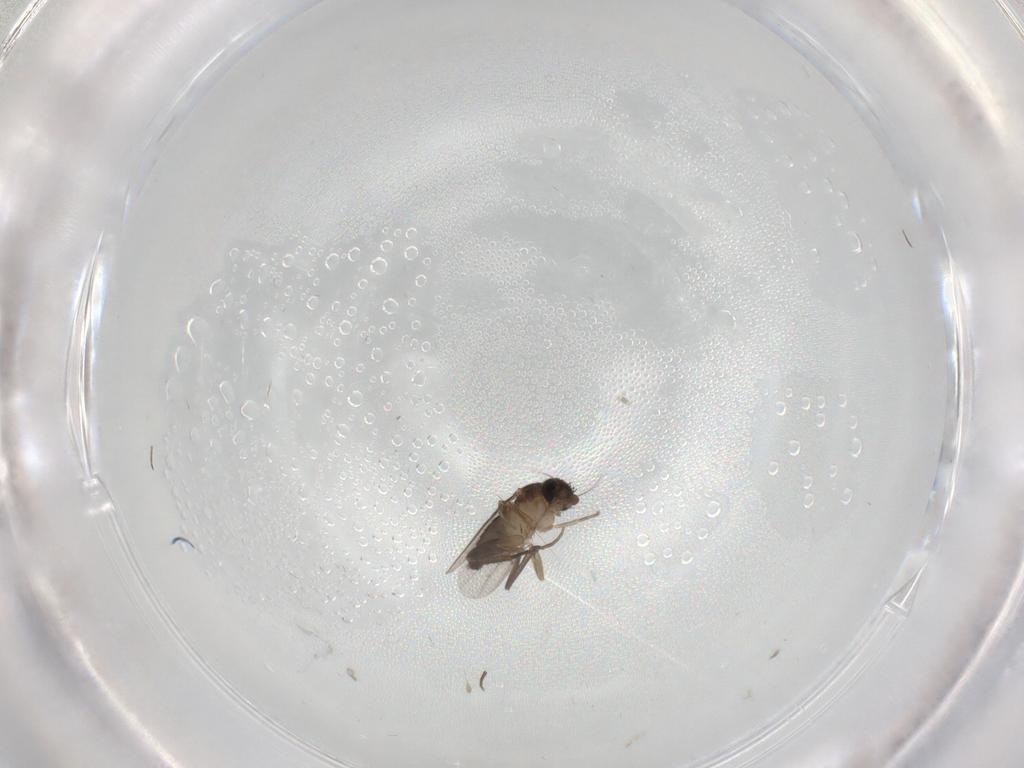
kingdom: Animalia
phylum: Arthropoda
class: Insecta
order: Diptera
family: Phoridae
